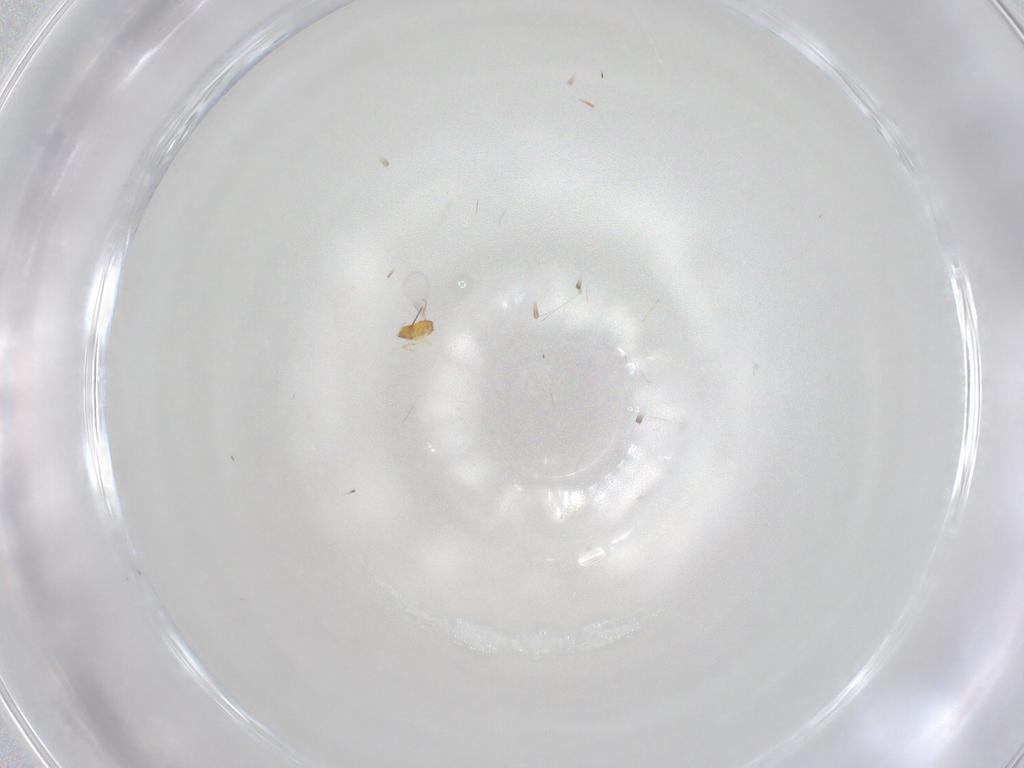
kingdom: Animalia
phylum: Arthropoda
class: Insecta
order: Hymenoptera
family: Trichogrammatidae
